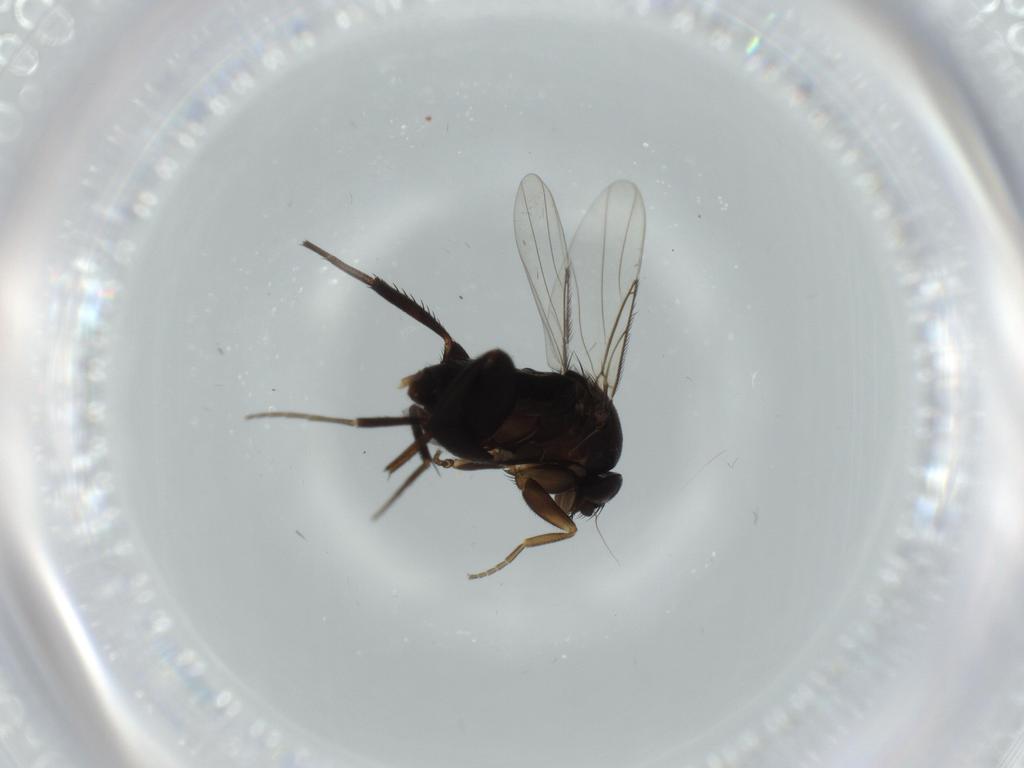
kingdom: Animalia
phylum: Arthropoda
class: Insecta
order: Diptera
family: Phoridae
